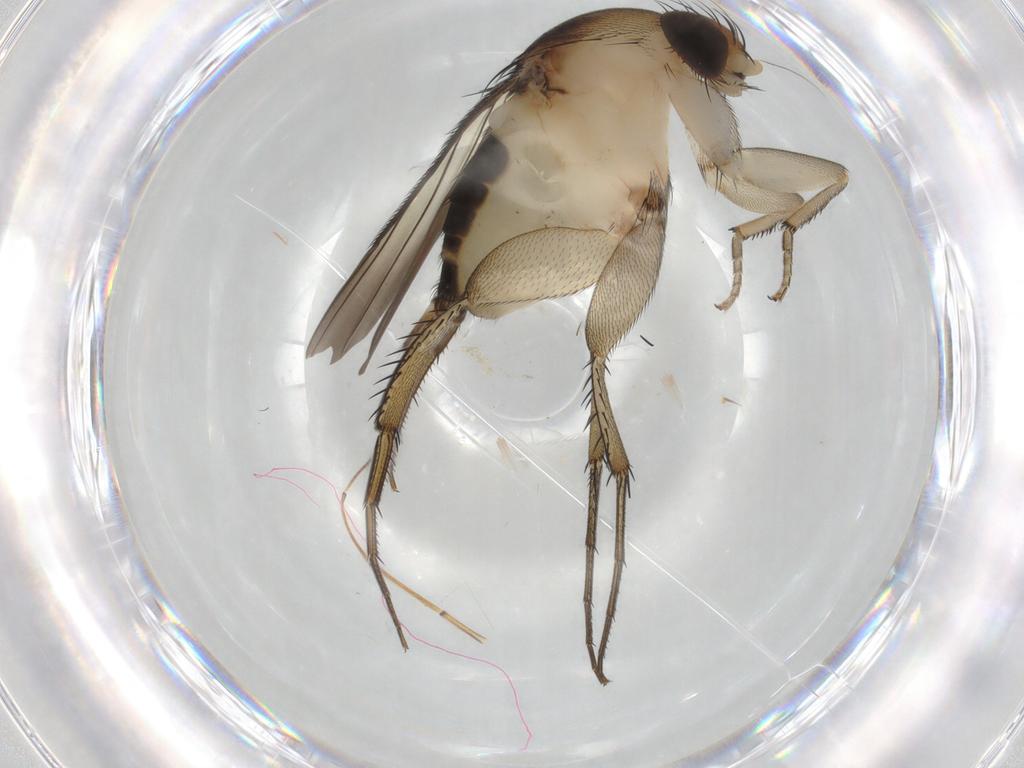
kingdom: Animalia
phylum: Arthropoda
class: Insecta
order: Diptera
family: Phoridae
